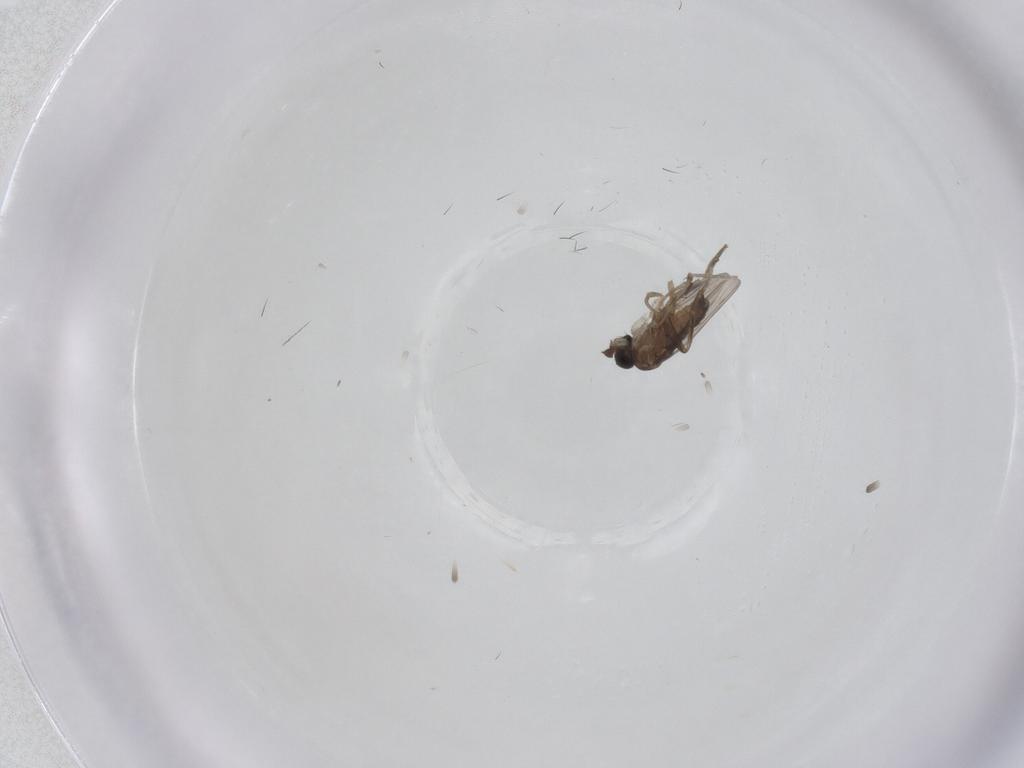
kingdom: Animalia
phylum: Arthropoda
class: Insecta
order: Diptera
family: Phoridae
